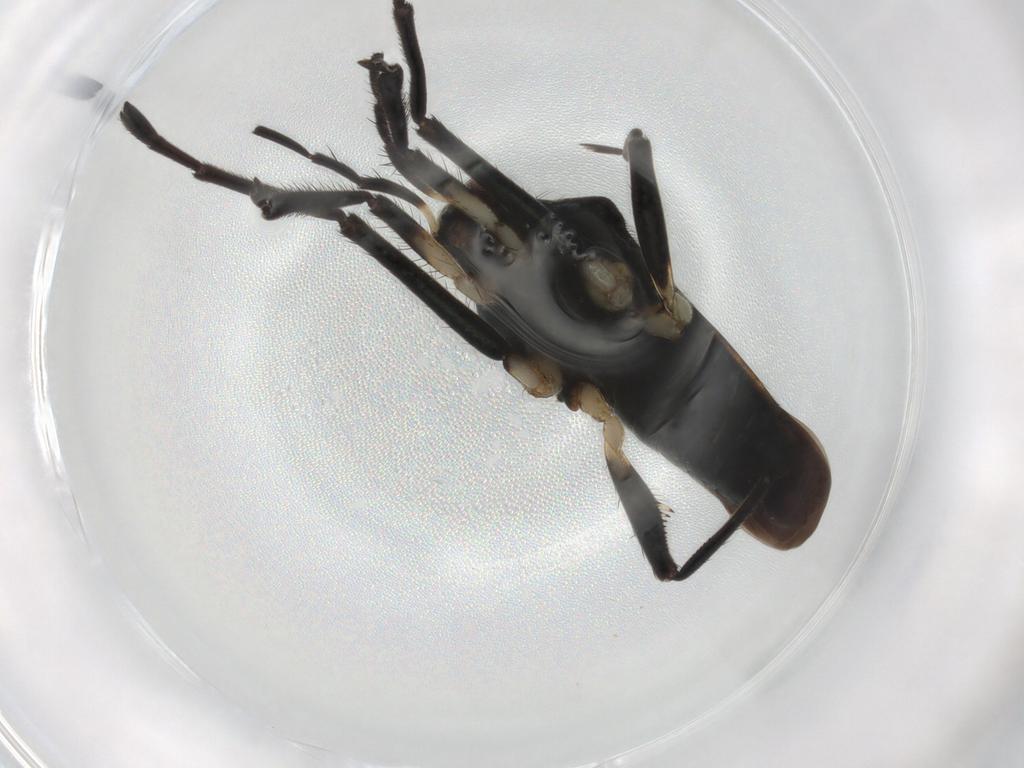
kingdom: Animalia
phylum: Arthropoda
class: Insecta
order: Hemiptera
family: Veliidae
